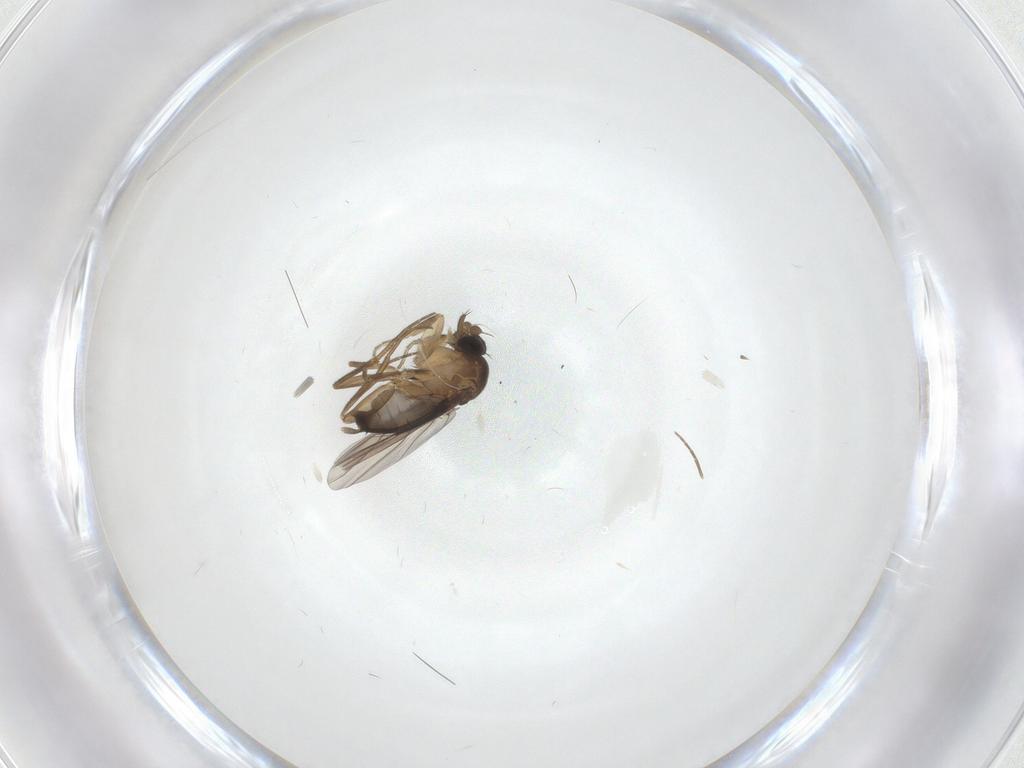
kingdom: Animalia
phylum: Arthropoda
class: Insecta
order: Diptera
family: Phoridae
